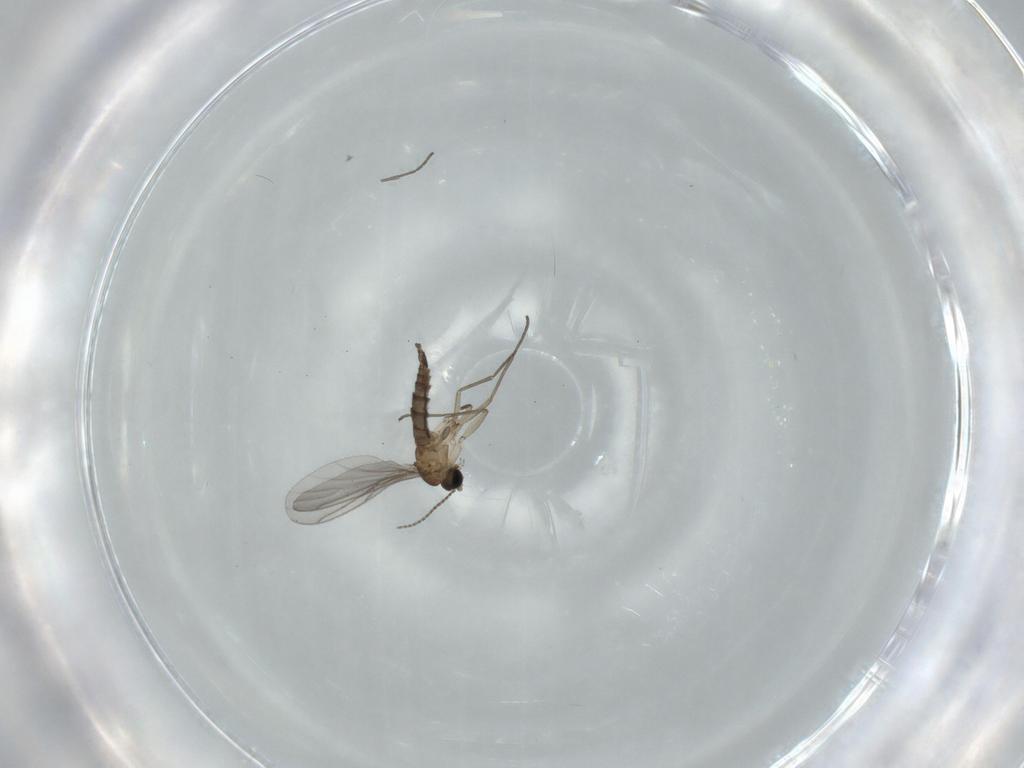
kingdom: Animalia
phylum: Arthropoda
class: Insecta
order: Diptera
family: Sciaridae
